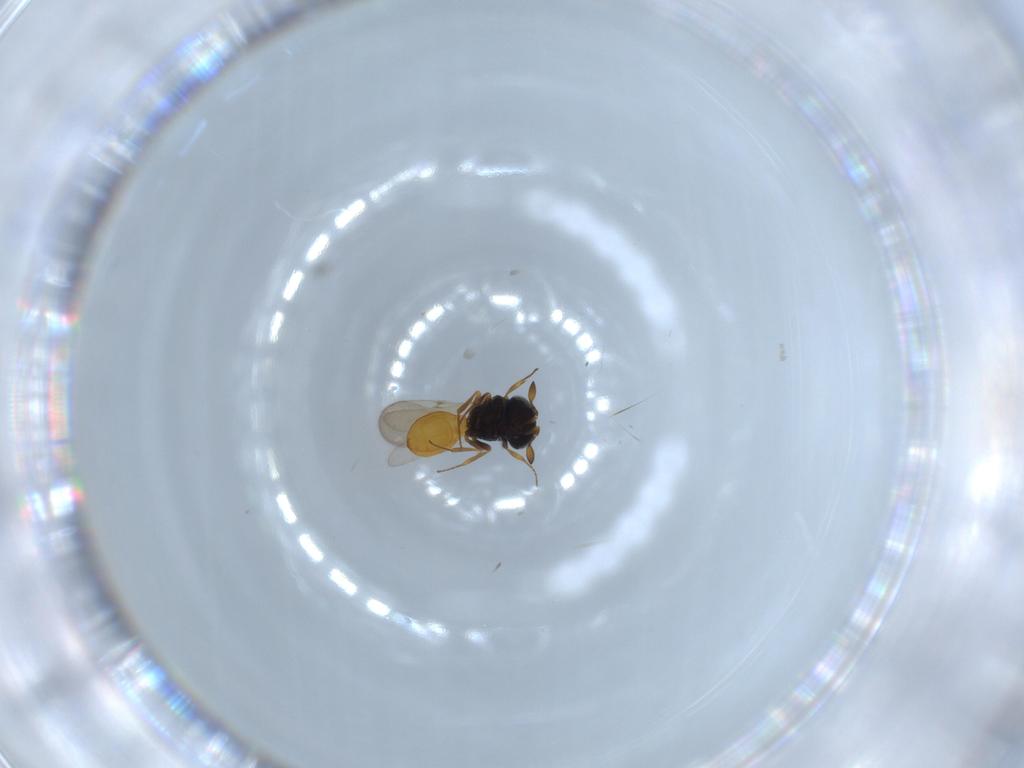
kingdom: Animalia
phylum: Arthropoda
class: Insecta
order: Hymenoptera
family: Scelionidae
